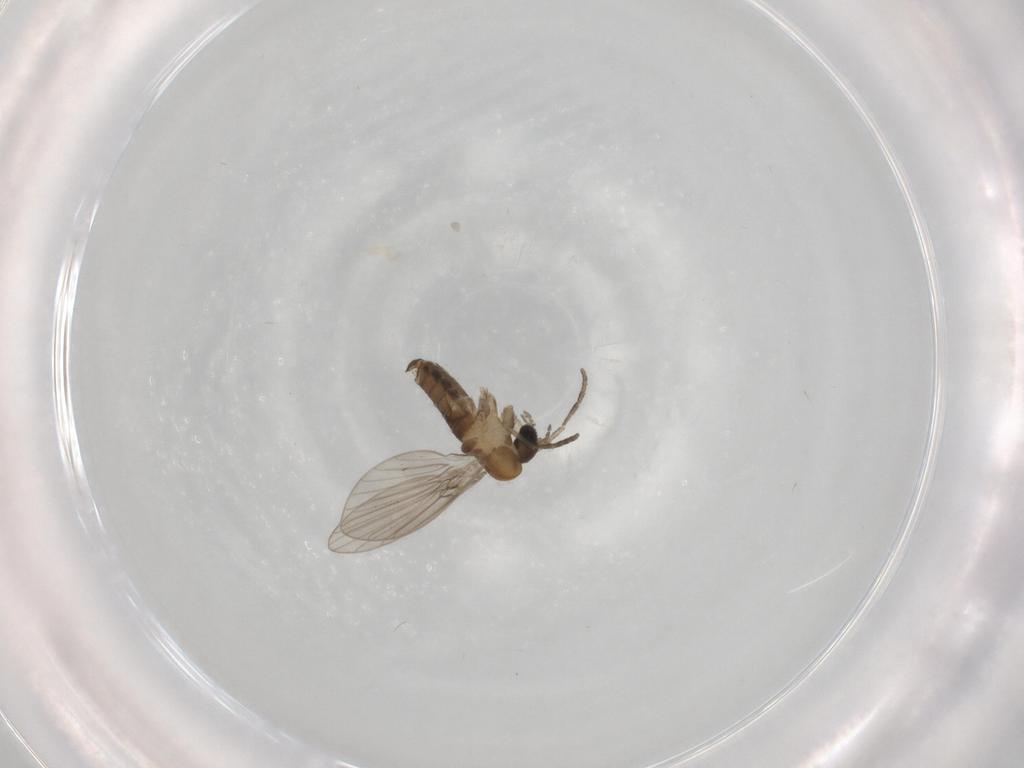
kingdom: Animalia
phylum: Arthropoda
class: Insecta
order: Diptera
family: Psychodidae
